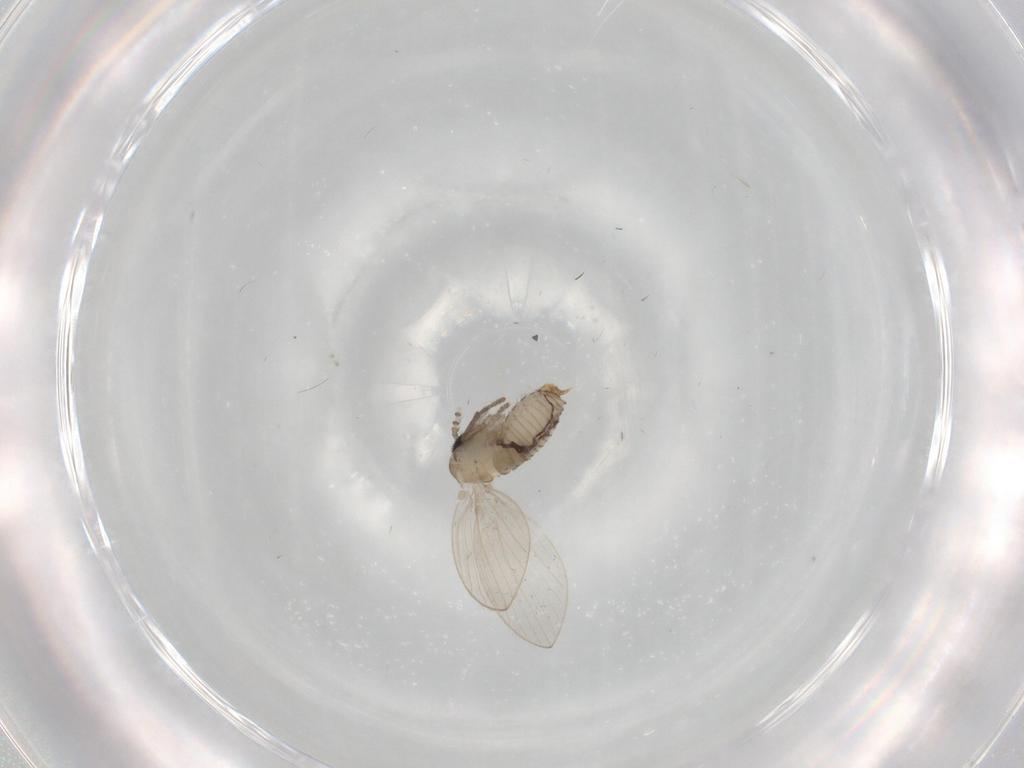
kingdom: Animalia
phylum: Arthropoda
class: Insecta
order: Diptera
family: Psychodidae
